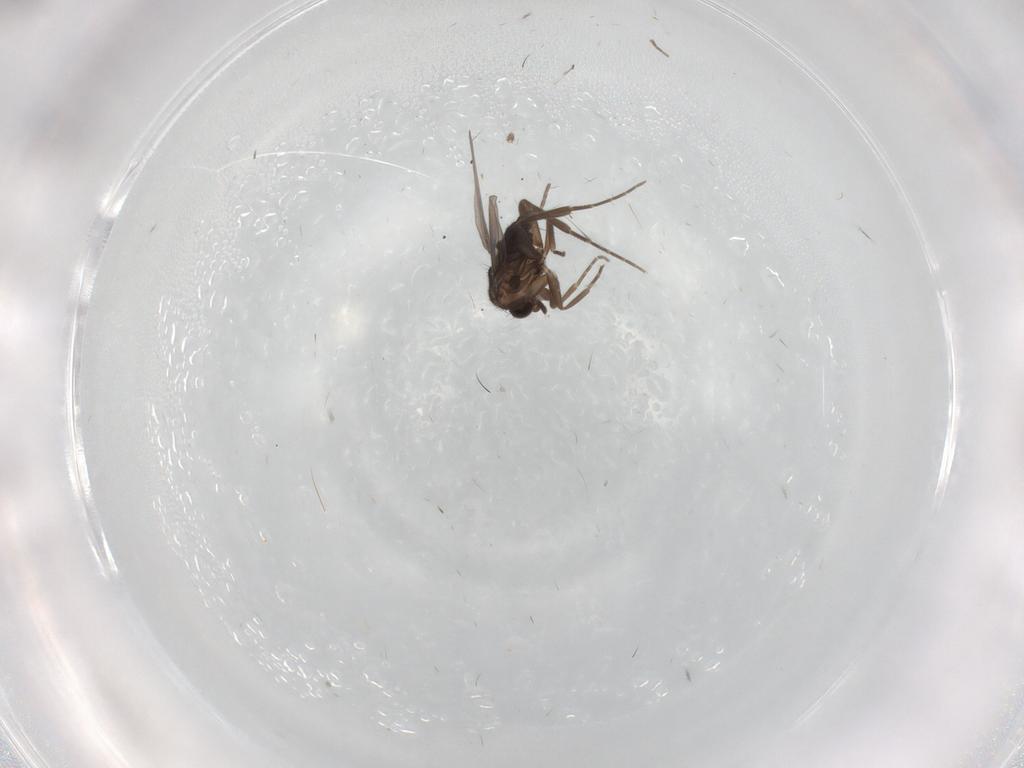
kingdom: Animalia
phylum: Arthropoda
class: Insecta
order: Diptera
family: Phoridae
